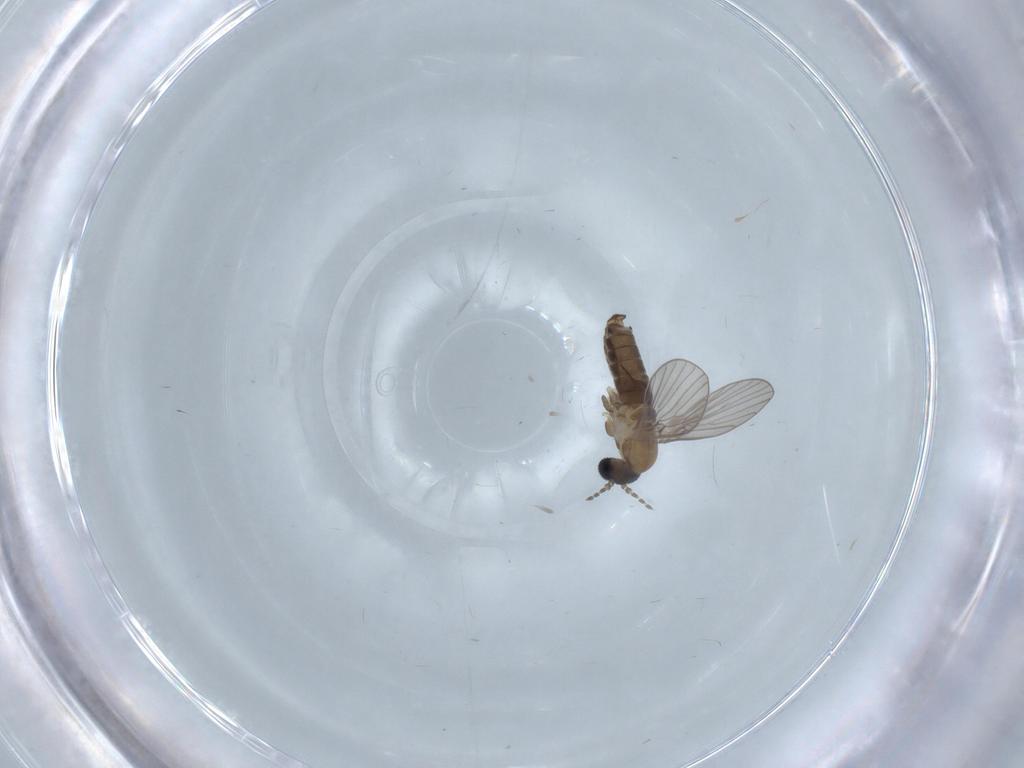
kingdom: Animalia
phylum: Arthropoda
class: Insecta
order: Diptera
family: Psychodidae
